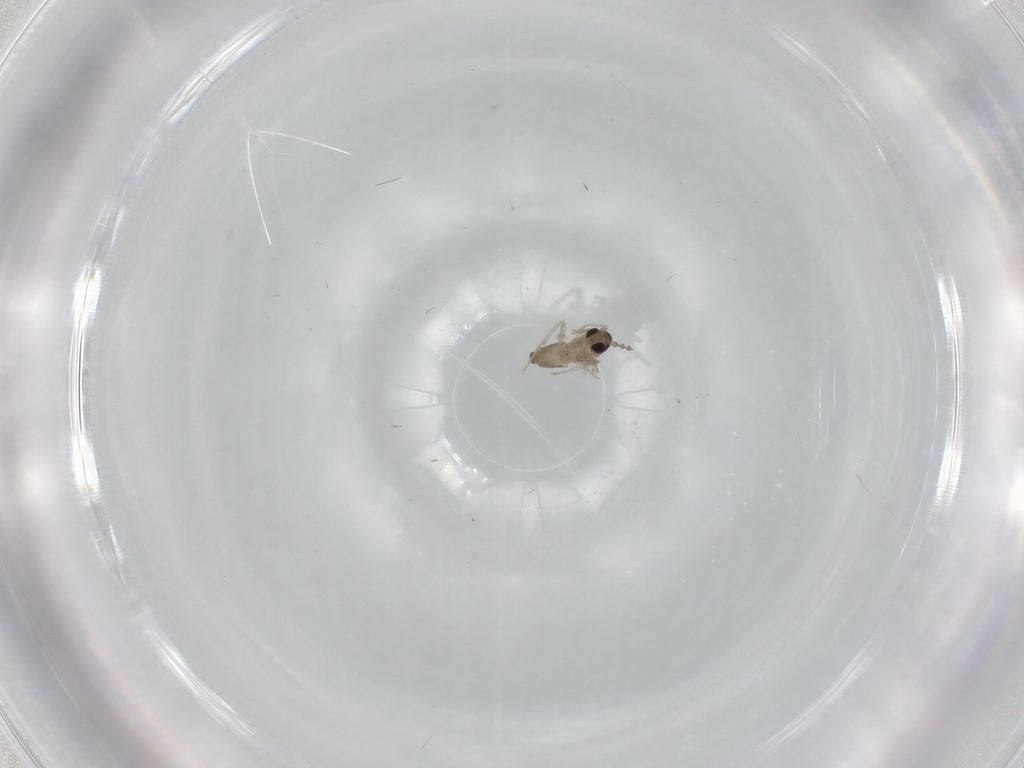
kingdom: Animalia
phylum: Arthropoda
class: Insecta
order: Diptera
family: Cecidomyiidae
